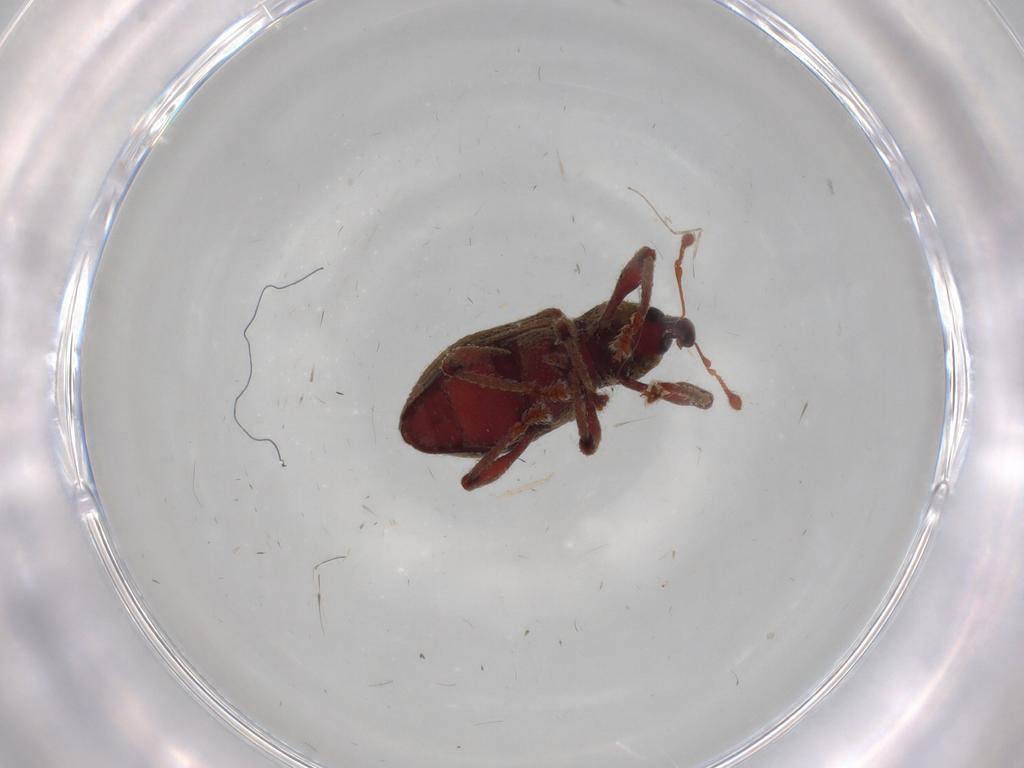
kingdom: Animalia
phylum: Arthropoda
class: Insecta
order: Coleoptera
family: Curculionidae
